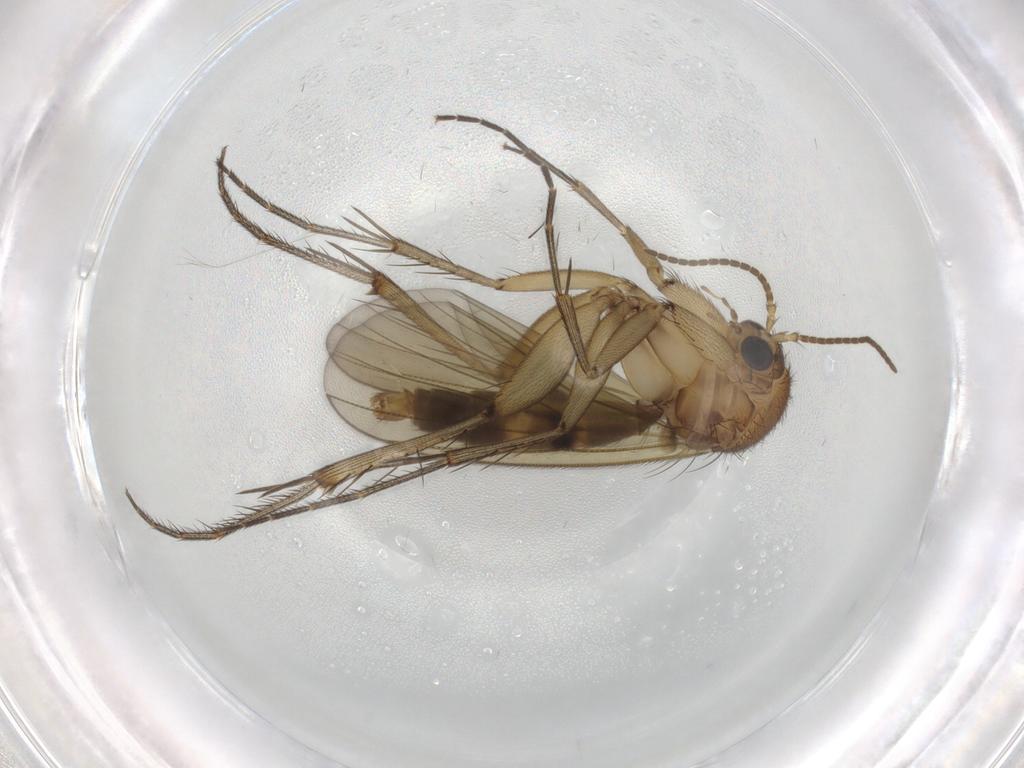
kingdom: Animalia
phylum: Arthropoda
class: Insecta
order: Diptera
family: Mycetophilidae
